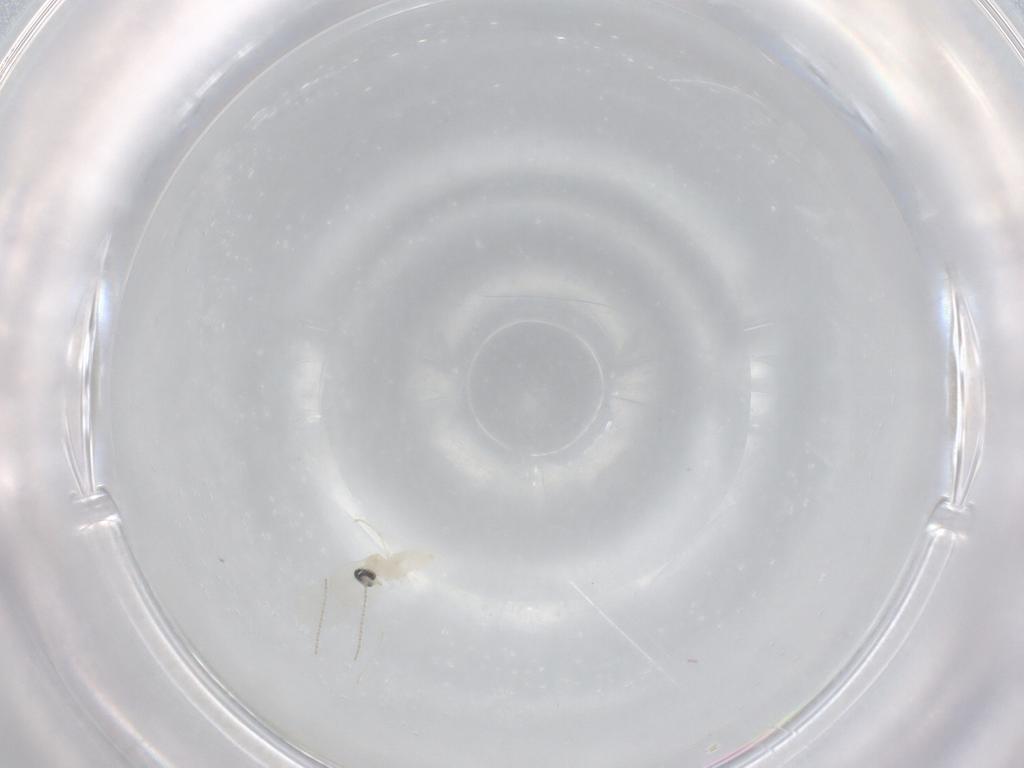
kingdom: Animalia
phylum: Arthropoda
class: Insecta
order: Diptera
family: Cecidomyiidae
